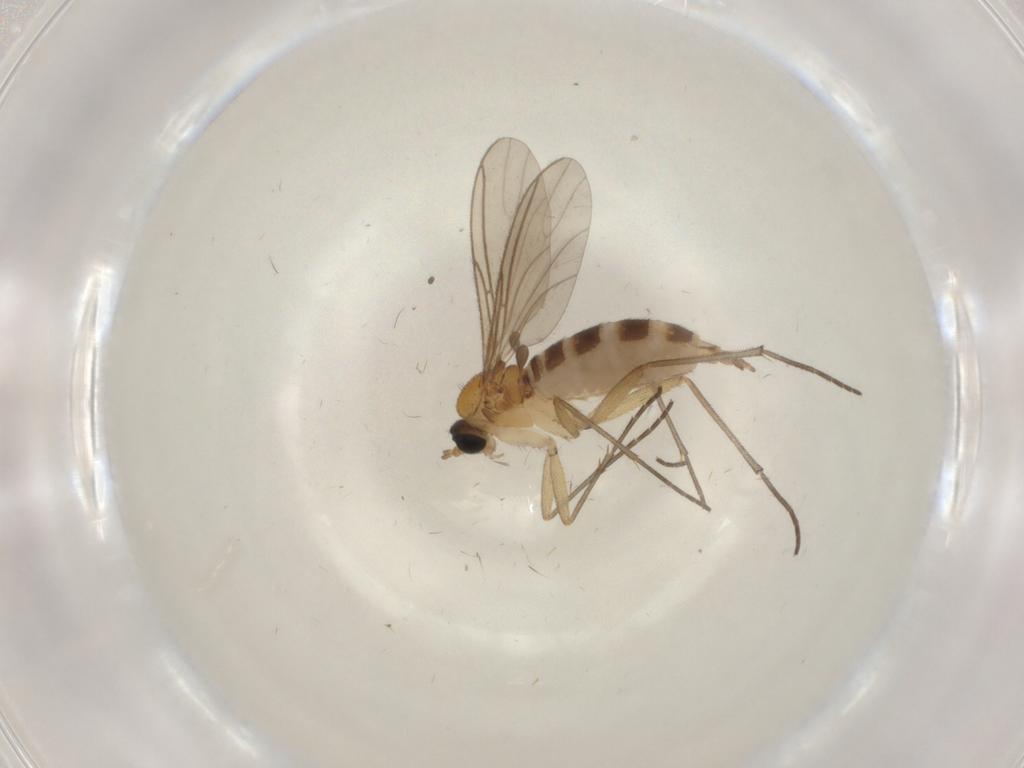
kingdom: Animalia
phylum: Arthropoda
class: Insecta
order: Diptera
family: Sciaridae
